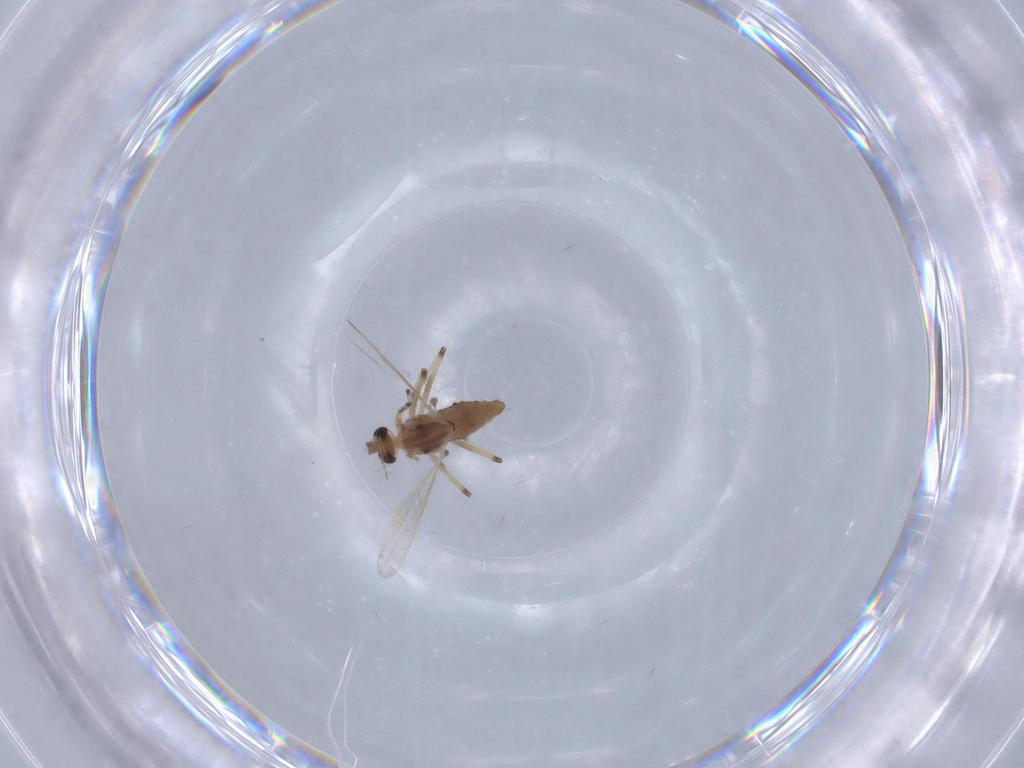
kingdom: Animalia
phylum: Arthropoda
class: Insecta
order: Diptera
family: Chironomidae
